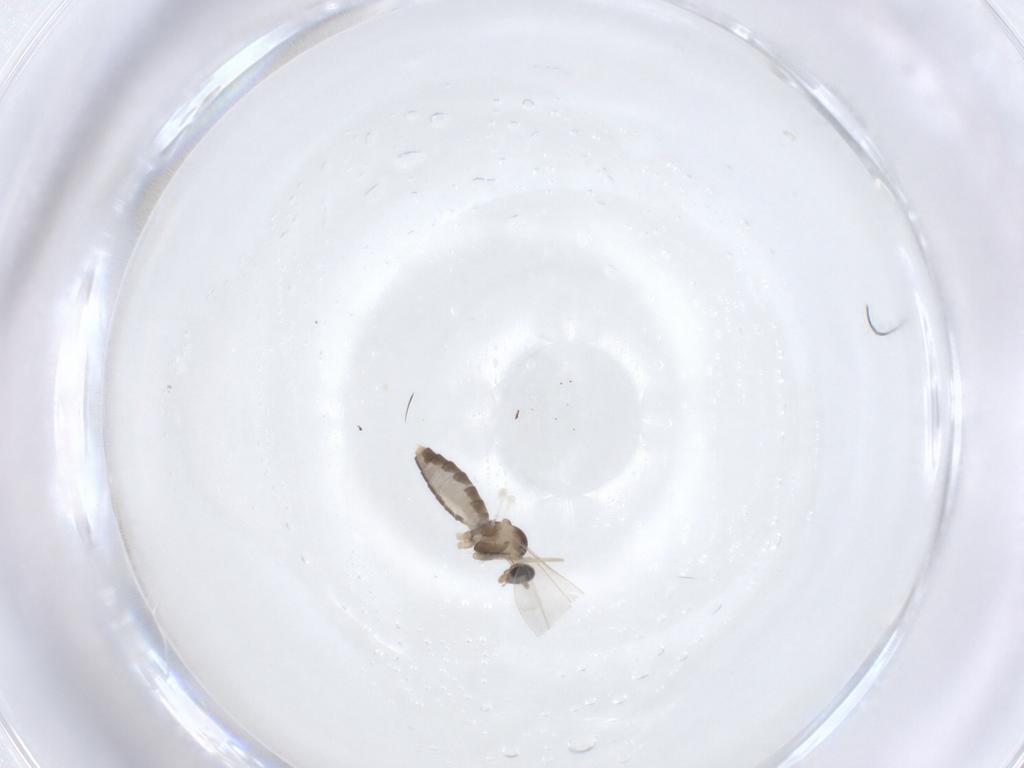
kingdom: Animalia
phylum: Arthropoda
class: Insecta
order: Diptera
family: Cecidomyiidae
